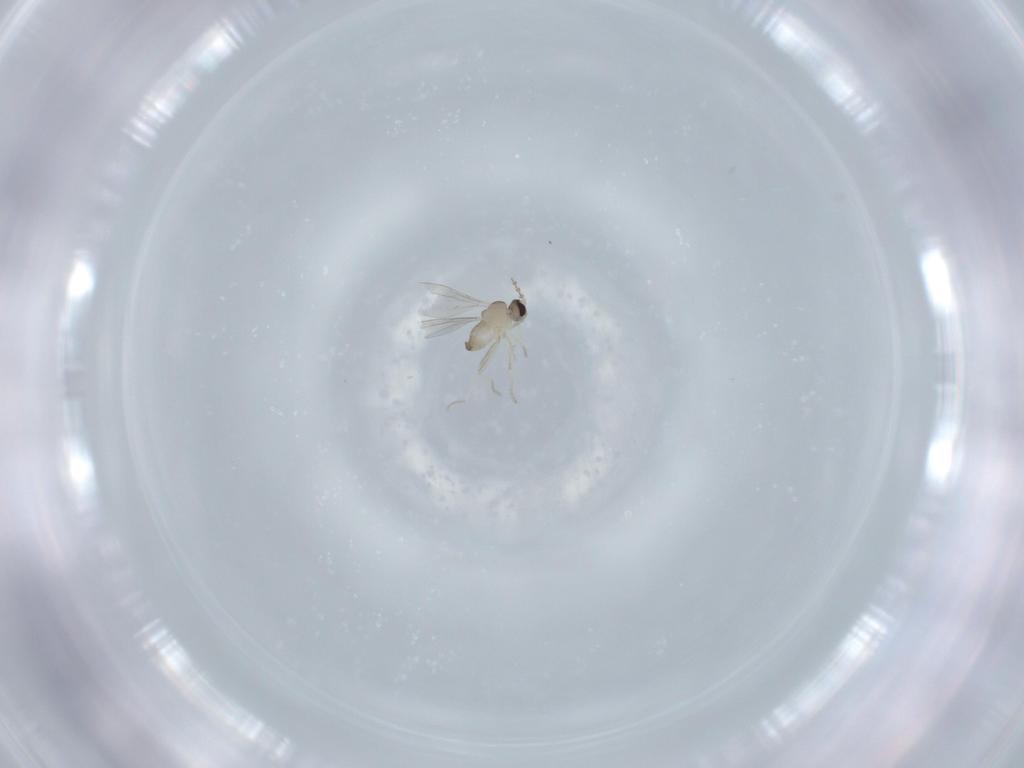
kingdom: Animalia
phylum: Arthropoda
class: Insecta
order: Diptera
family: Cecidomyiidae
